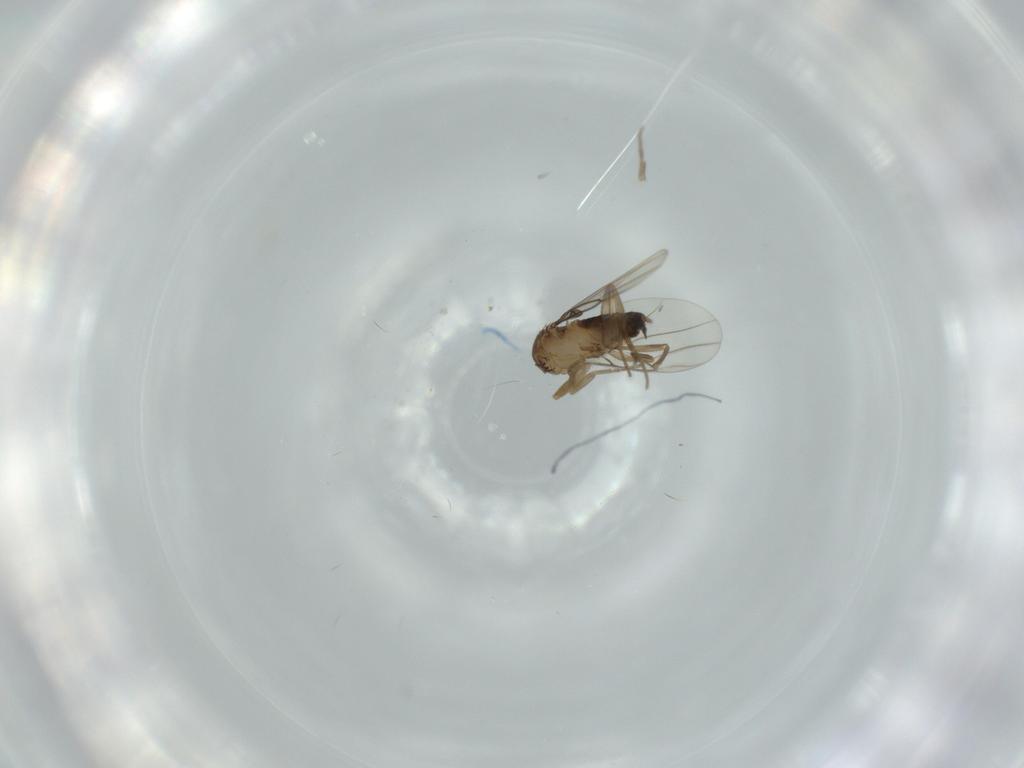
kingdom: Animalia
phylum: Arthropoda
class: Insecta
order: Diptera
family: Phoridae
